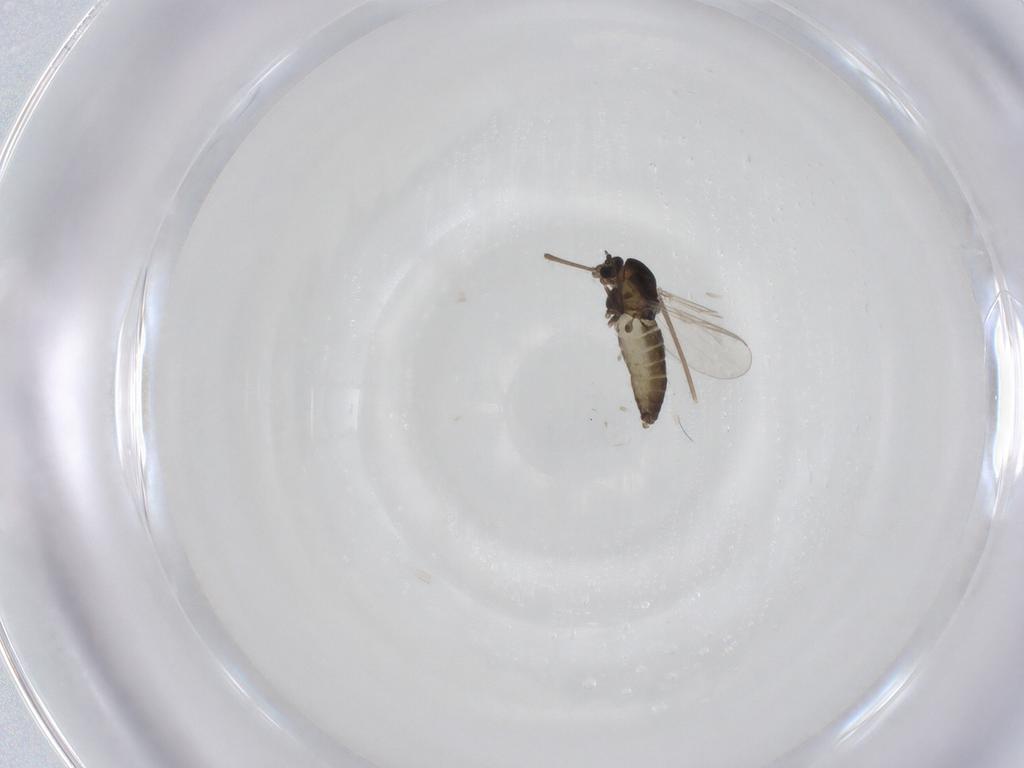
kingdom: Animalia
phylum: Arthropoda
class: Insecta
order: Diptera
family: Chironomidae
